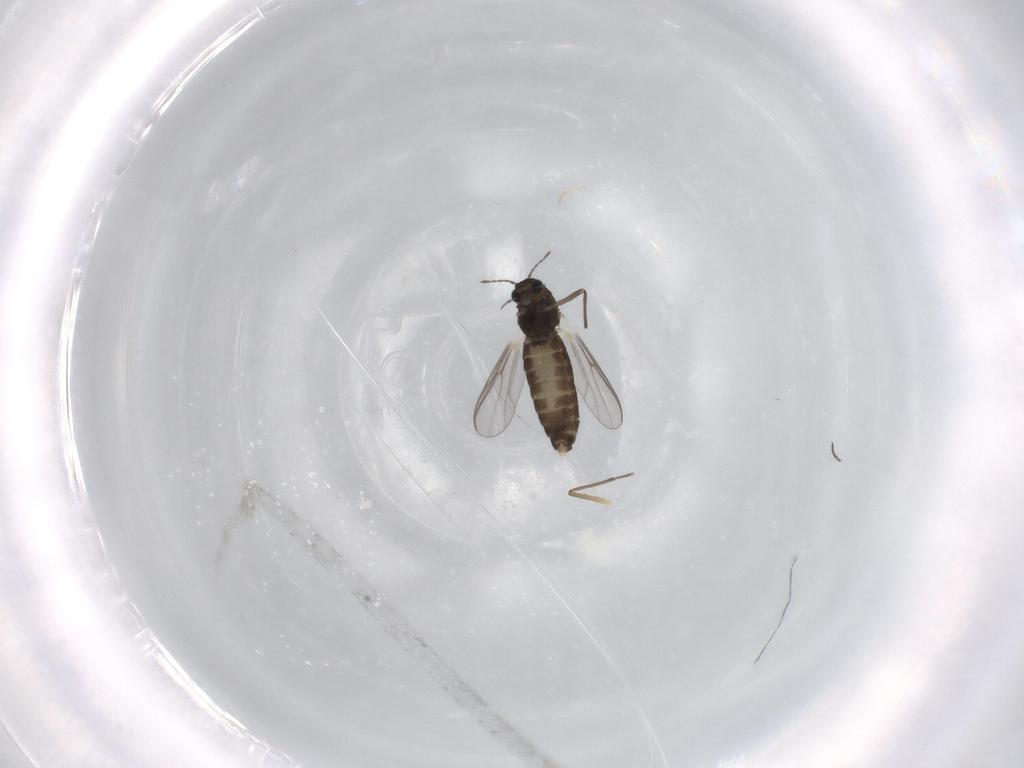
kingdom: Animalia
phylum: Arthropoda
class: Insecta
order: Diptera
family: Chironomidae
